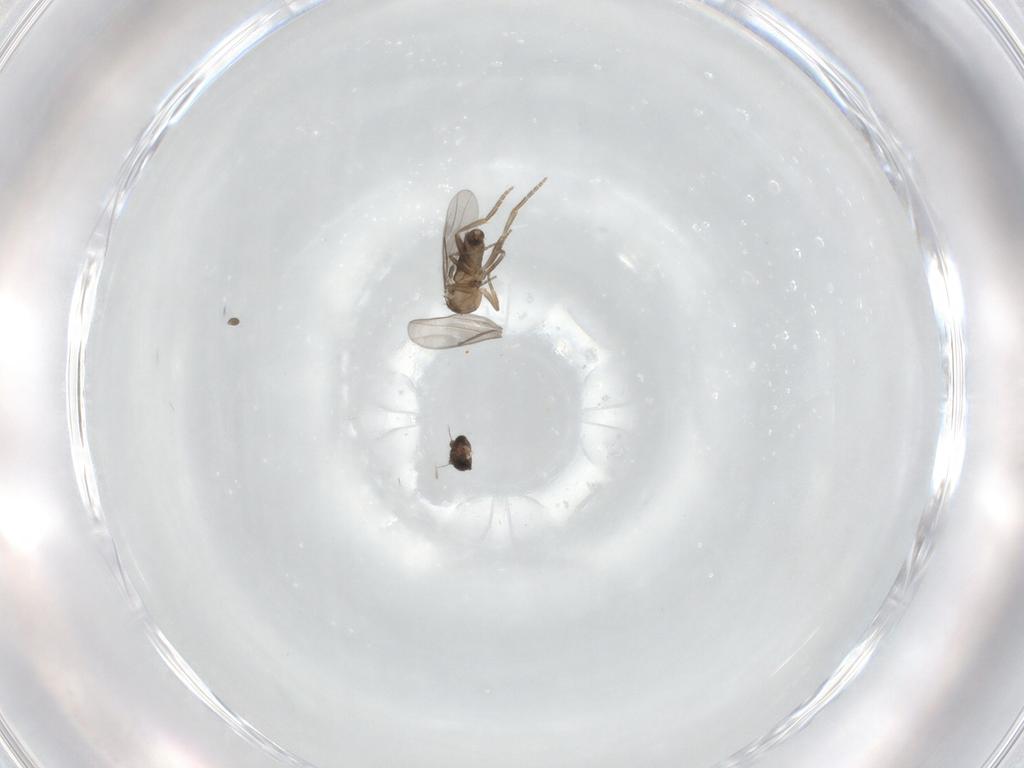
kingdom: Animalia
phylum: Arthropoda
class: Insecta
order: Diptera
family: Cecidomyiidae
